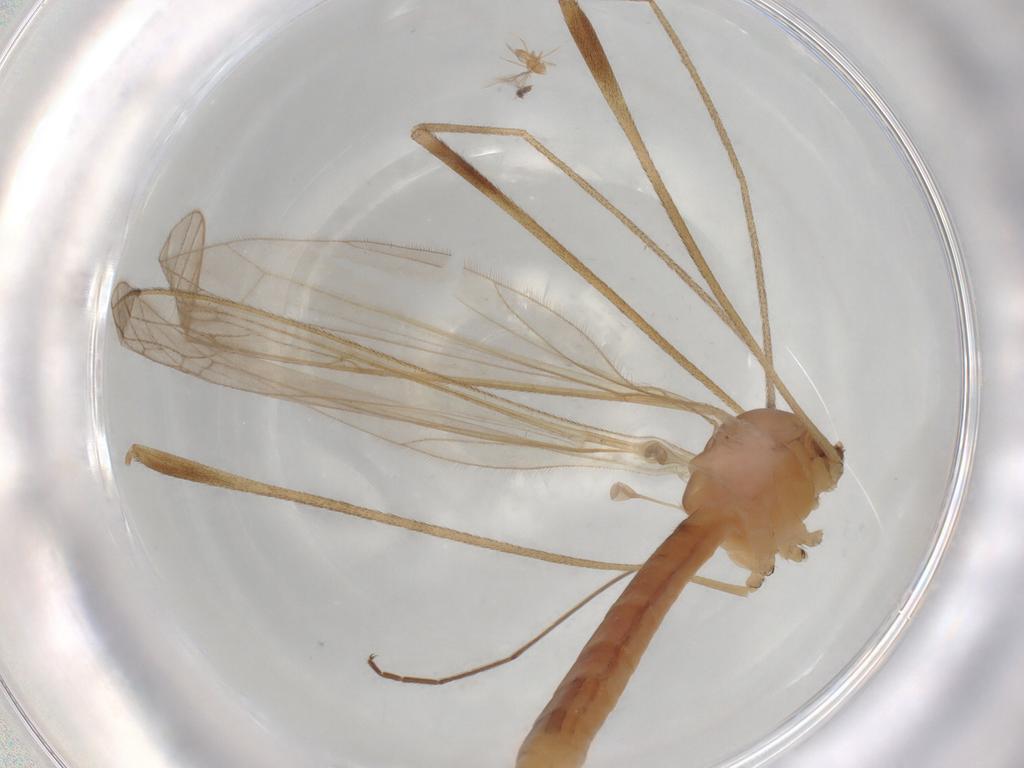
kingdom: Animalia
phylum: Arthropoda
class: Insecta
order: Diptera
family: Limoniidae
